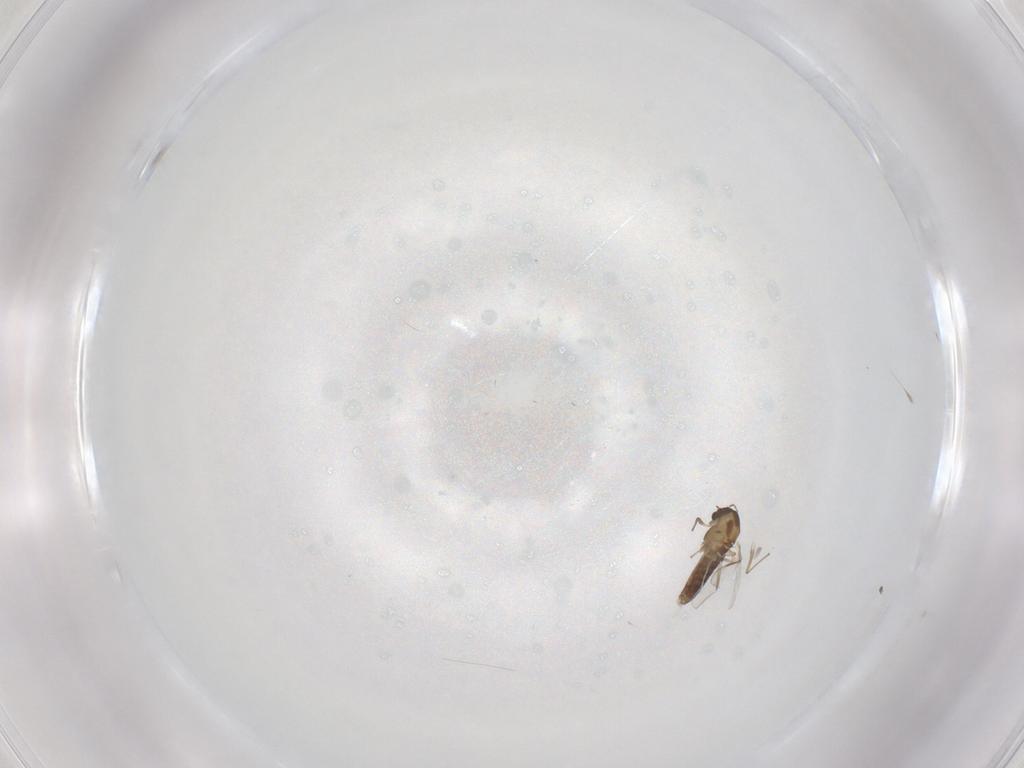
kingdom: Animalia
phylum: Arthropoda
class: Insecta
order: Diptera
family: Chironomidae
